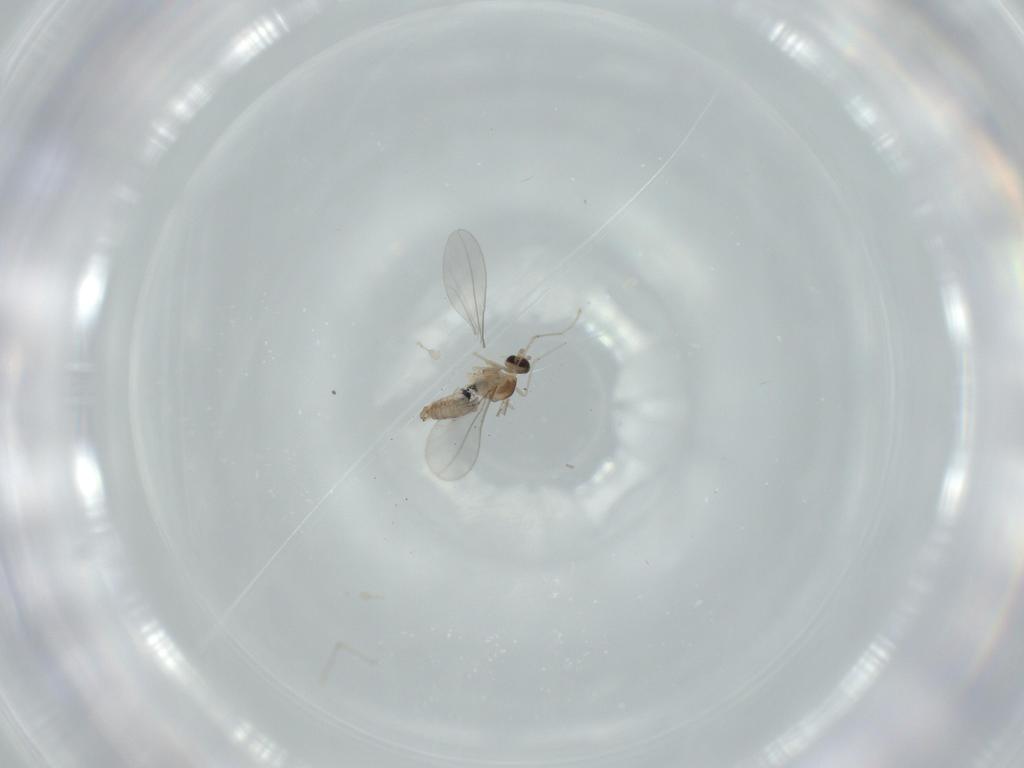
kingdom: Animalia
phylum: Arthropoda
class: Insecta
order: Diptera
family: Cecidomyiidae
